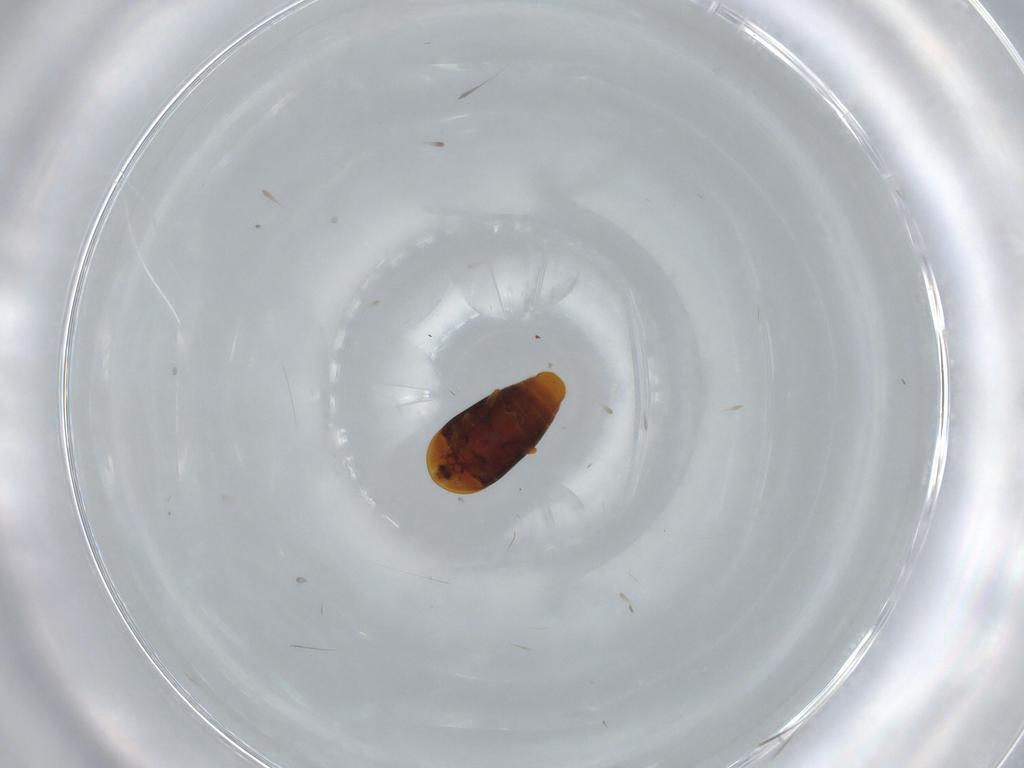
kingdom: Animalia
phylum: Arthropoda
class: Insecta
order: Coleoptera
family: Corylophidae
